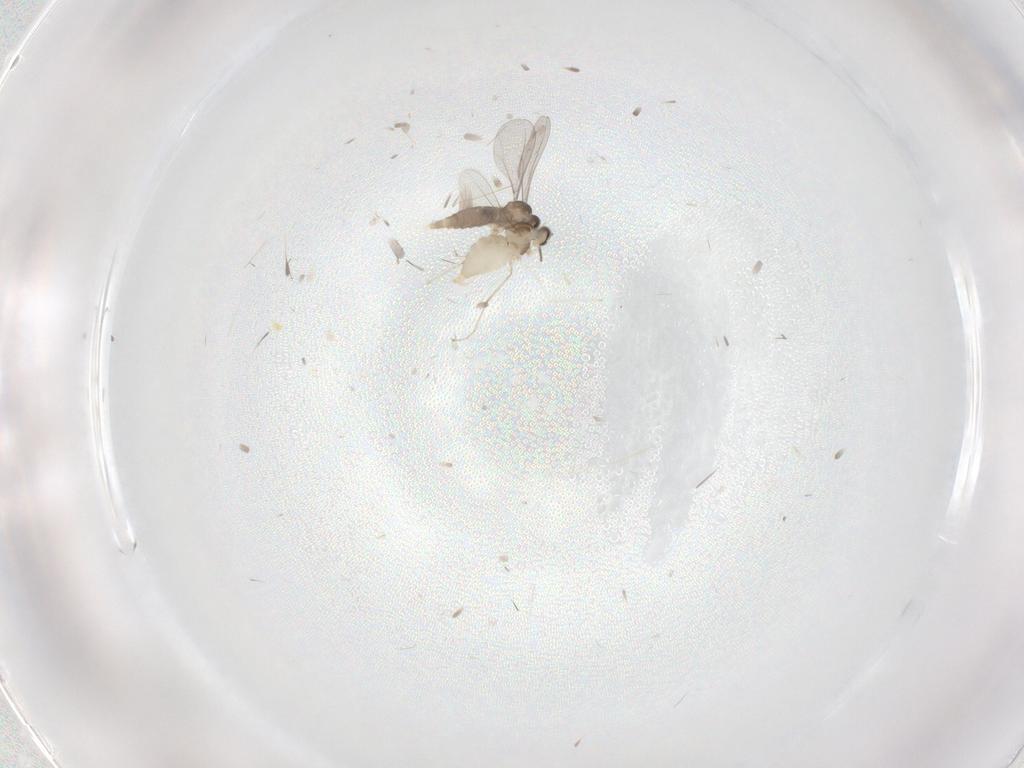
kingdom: Animalia
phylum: Arthropoda
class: Insecta
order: Diptera
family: Cecidomyiidae
